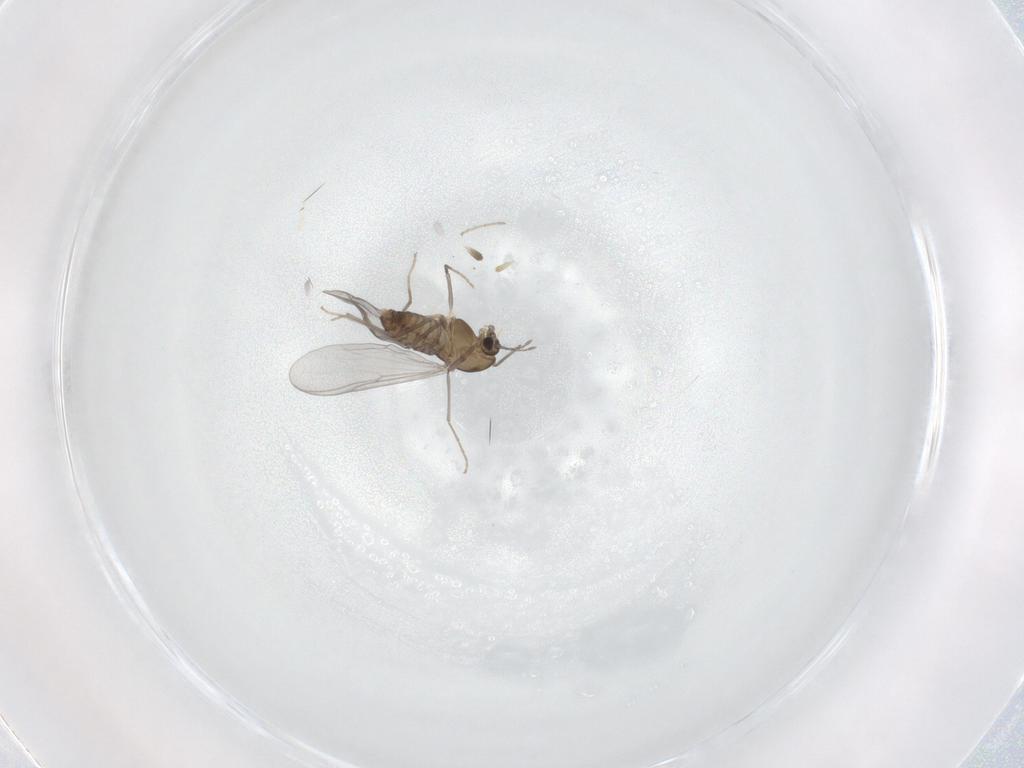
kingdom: Animalia
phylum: Arthropoda
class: Insecta
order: Diptera
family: Chironomidae
